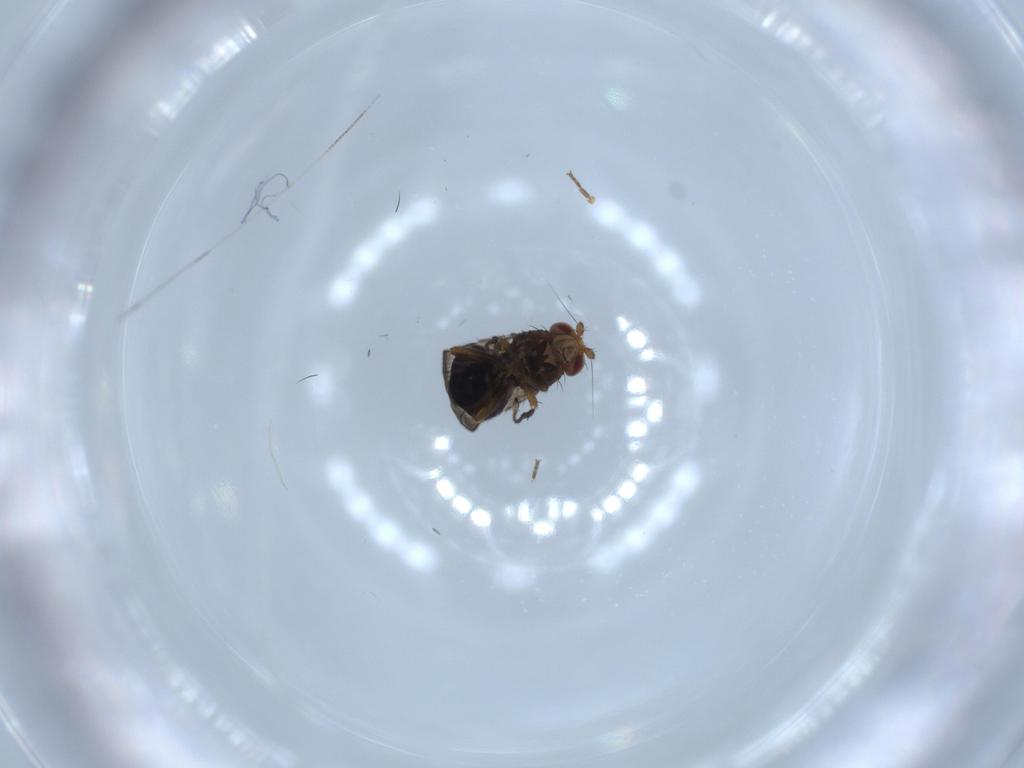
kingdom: Animalia
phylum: Arthropoda
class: Insecta
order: Diptera
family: Sphaeroceridae
